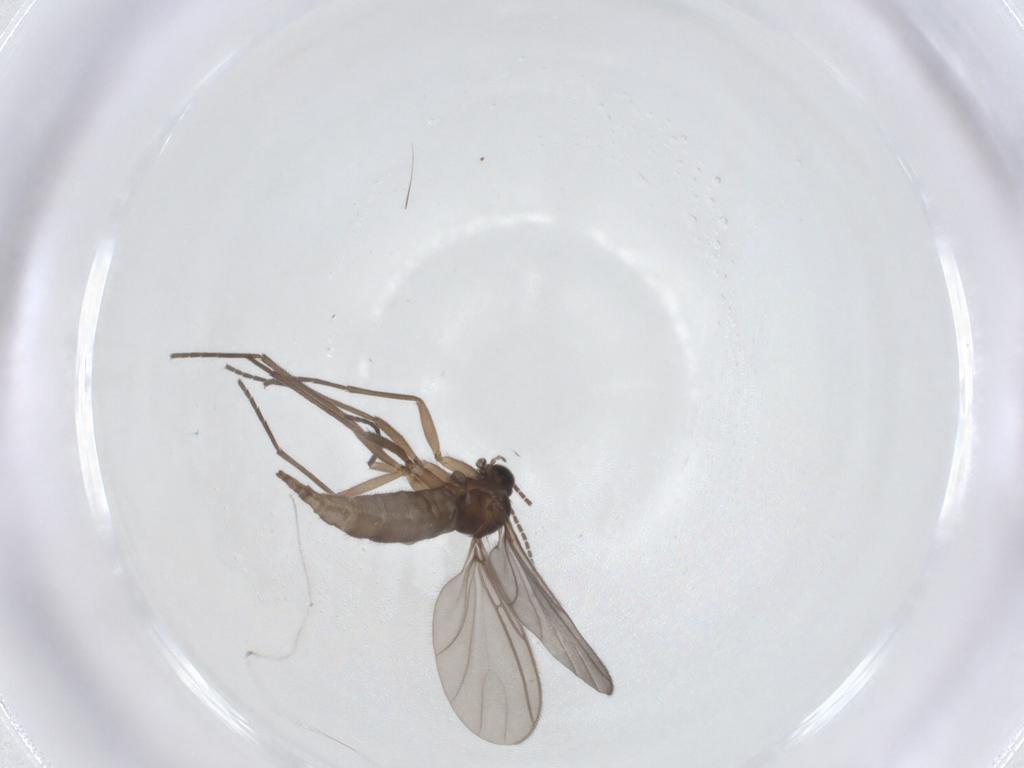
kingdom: Animalia
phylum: Arthropoda
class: Insecta
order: Diptera
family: Sciaridae
